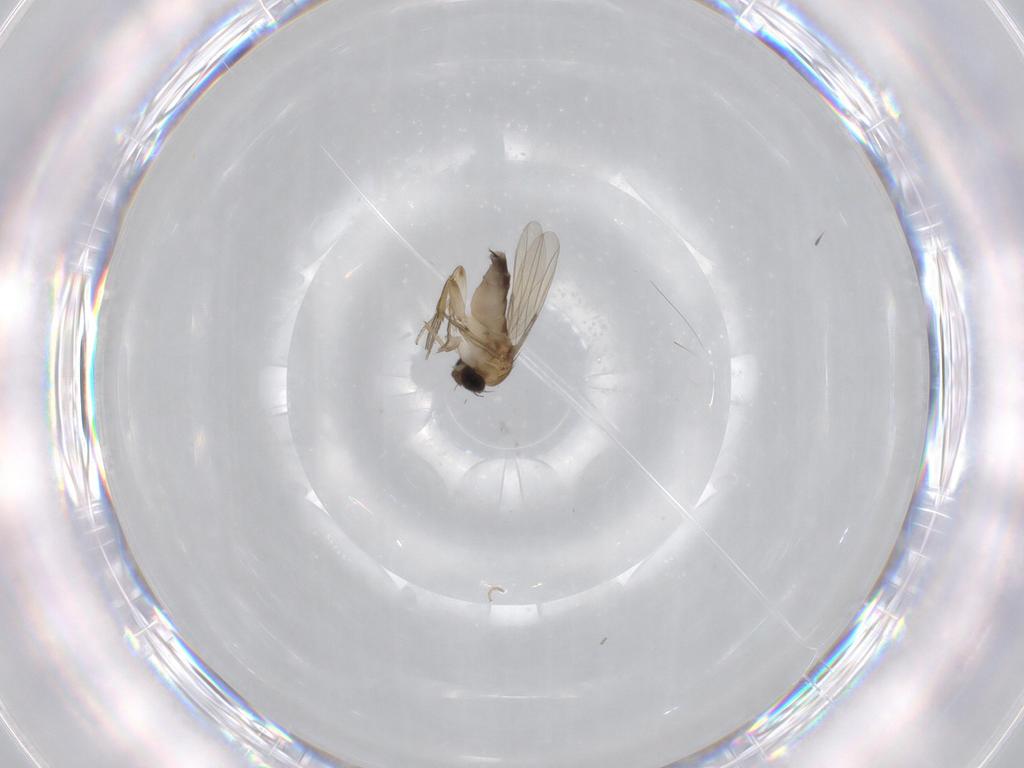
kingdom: Animalia
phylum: Arthropoda
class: Insecta
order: Diptera
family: Phoridae
